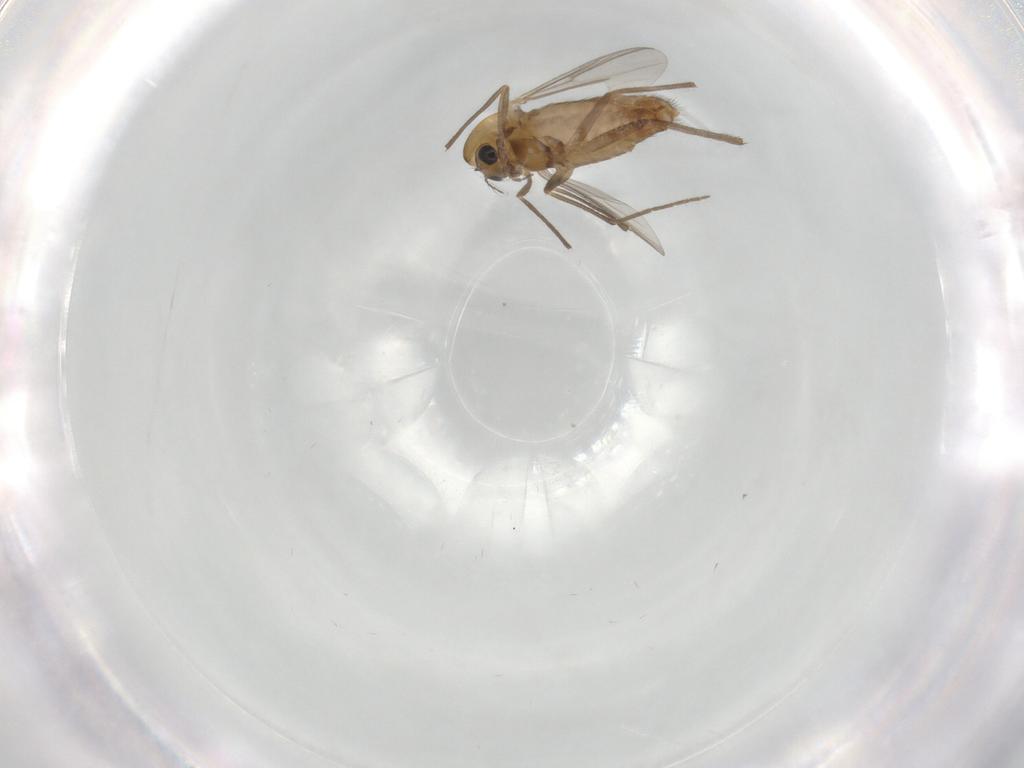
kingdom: Animalia
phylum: Arthropoda
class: Insecta
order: Diptera
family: Chironomidae
